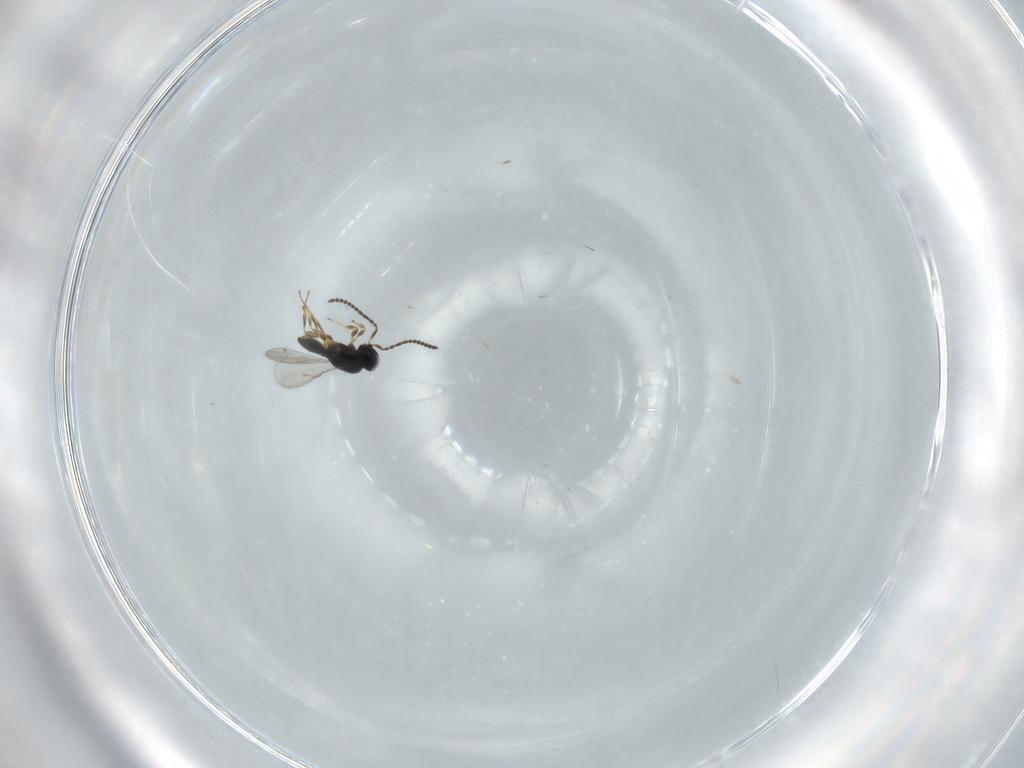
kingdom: Animalia
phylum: Arthropoda
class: Insecta
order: Hymenoptera
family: Scelionidae
